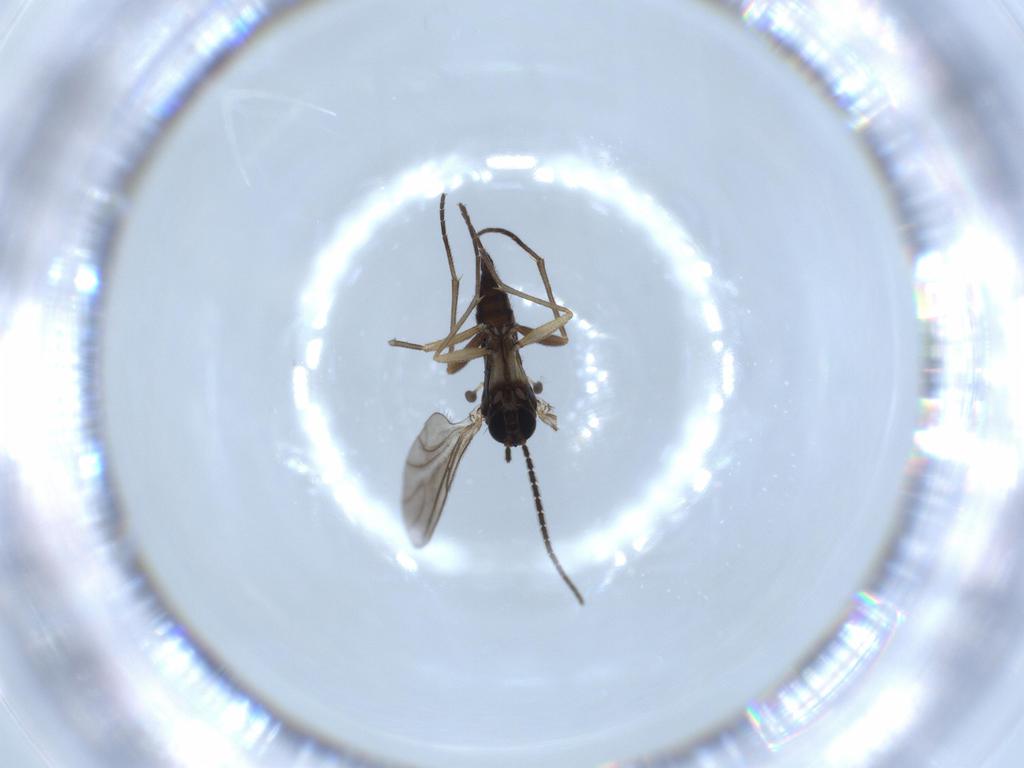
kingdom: Animalia
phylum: Arthropoda
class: Insecta
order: Diptera
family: Sciaridae
